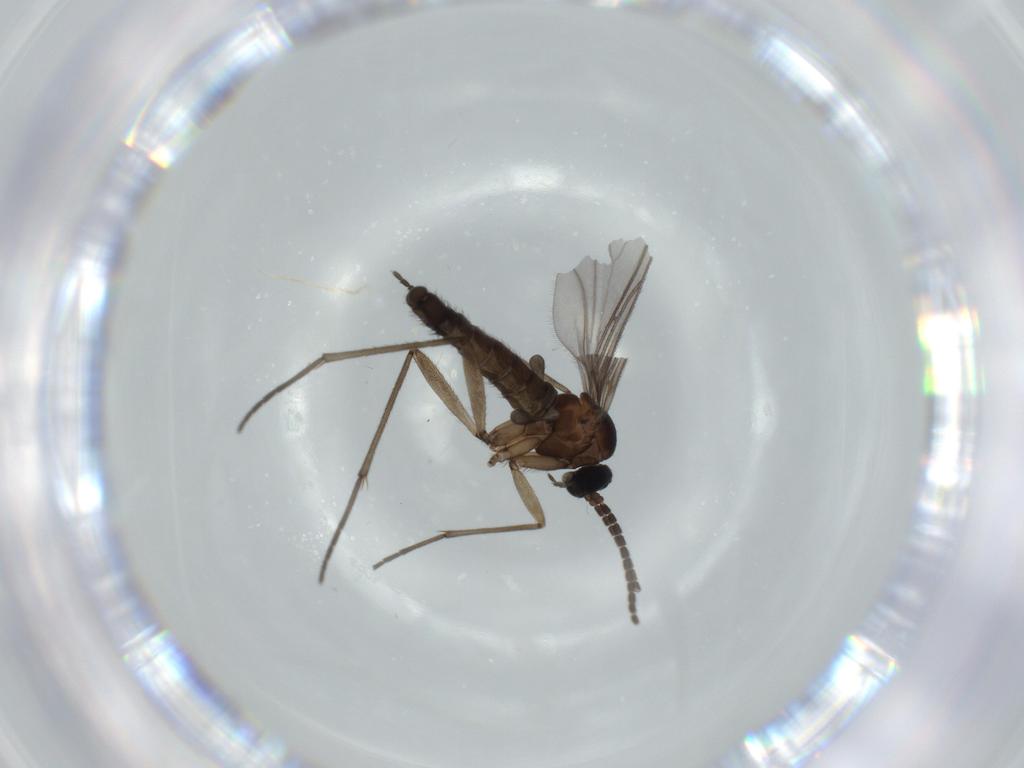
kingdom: Animalia
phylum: Arthropoda
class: Insecta
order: Diptera
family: Sciaridae
